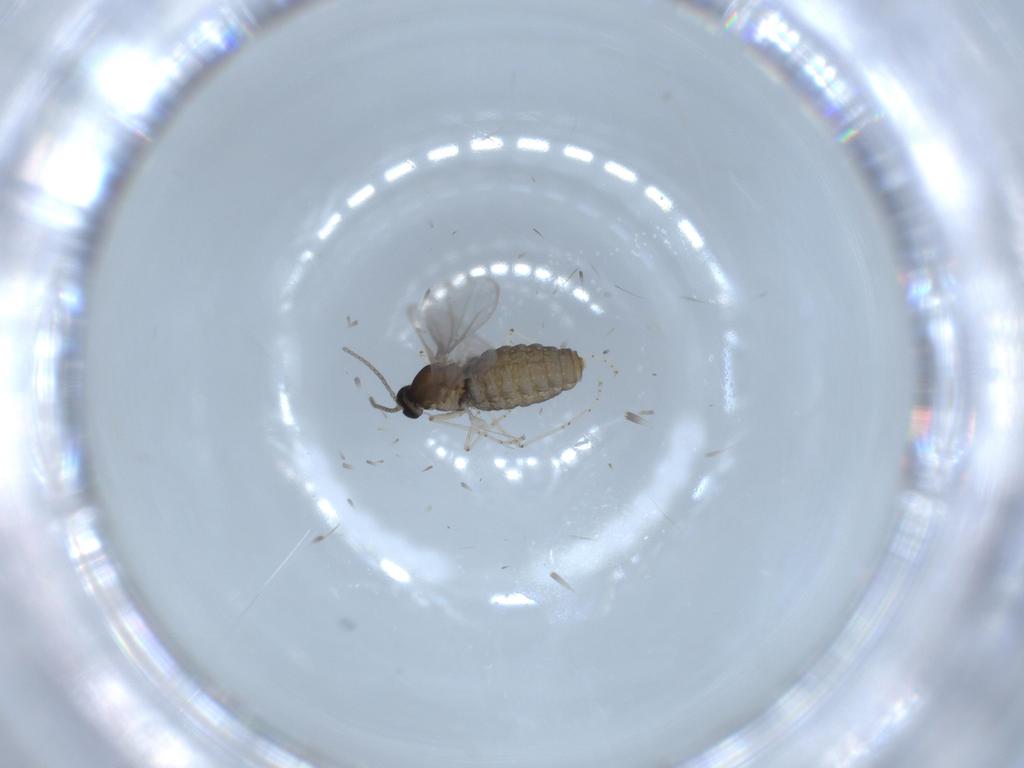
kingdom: Animalia
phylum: Arthropoda
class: Insecta
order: Diptera
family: Cecidomyiidae
